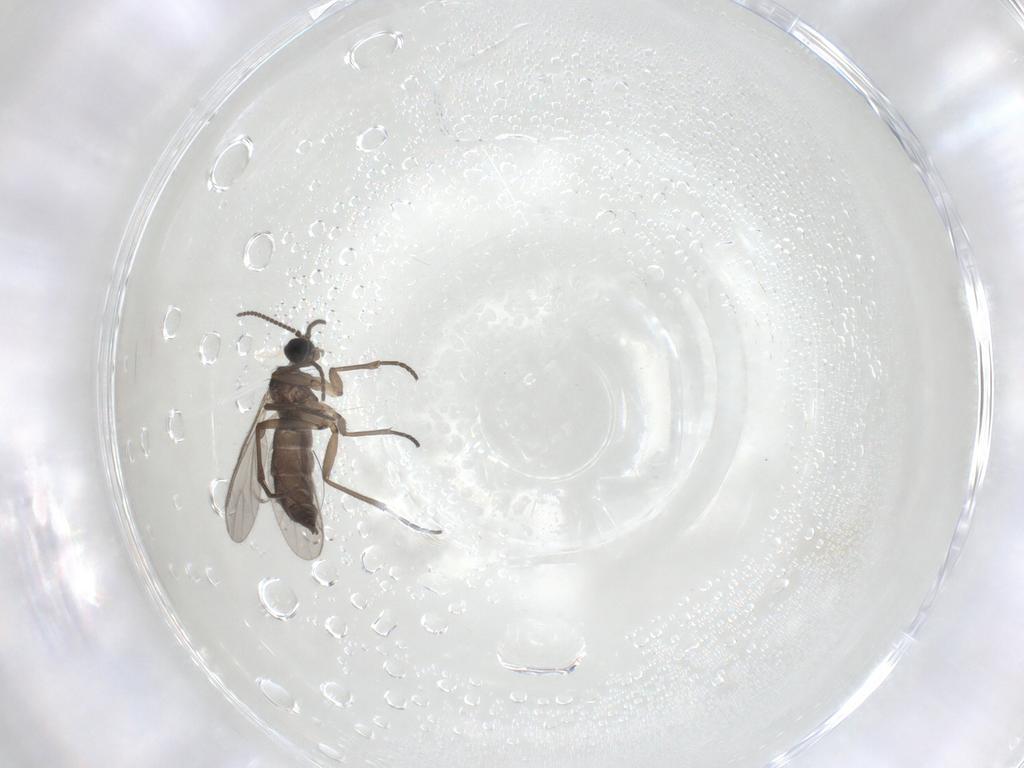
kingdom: Animalia
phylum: Arthropoda
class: Insecta
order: Diptera
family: Sciaridae
